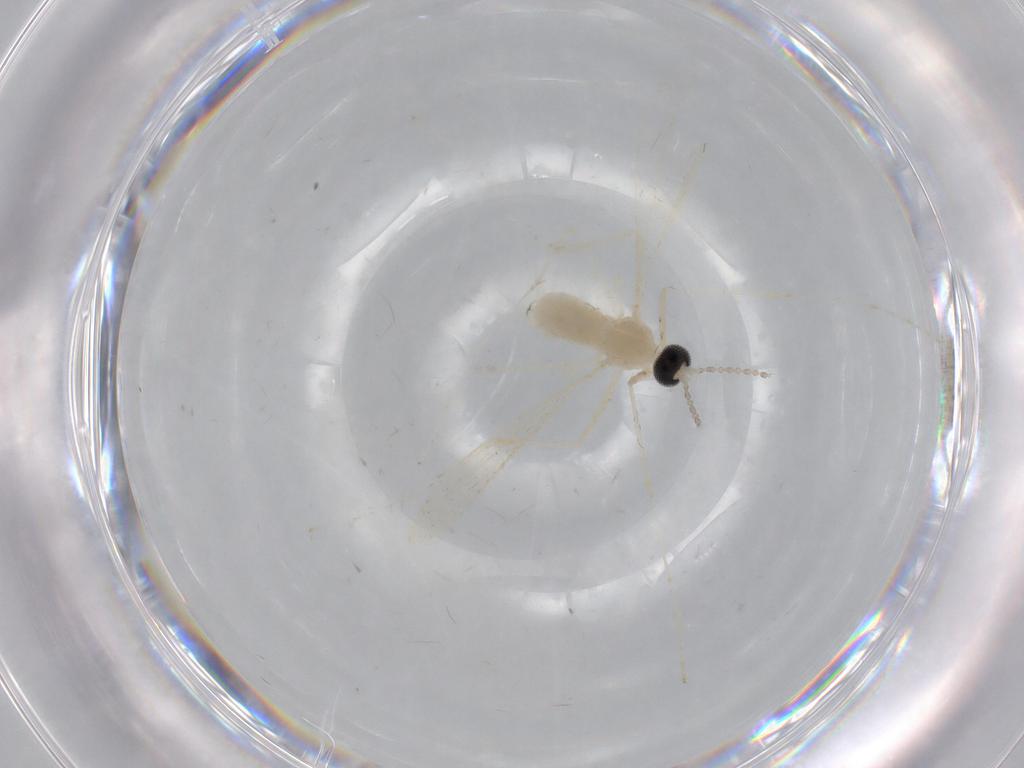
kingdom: Animalia
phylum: Arthropoda
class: Insecta
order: Diptera
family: Cecidomyiidae
